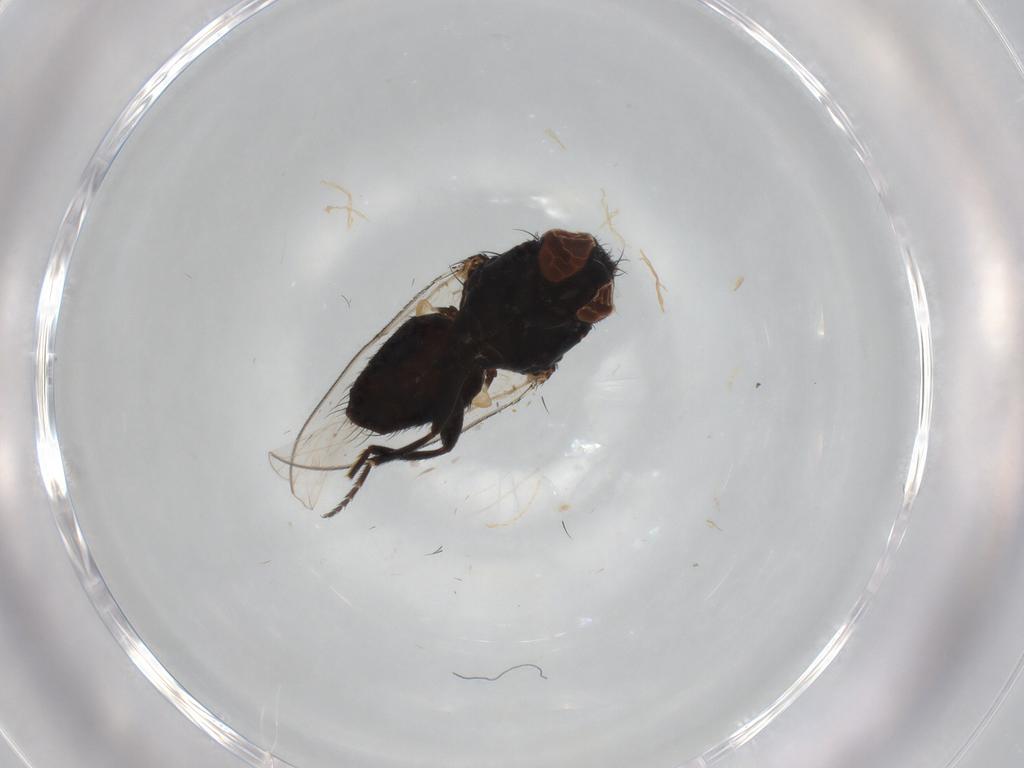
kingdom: Animalia
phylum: Arthropoda
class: Insecta
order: Diptera
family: Milichiidae
